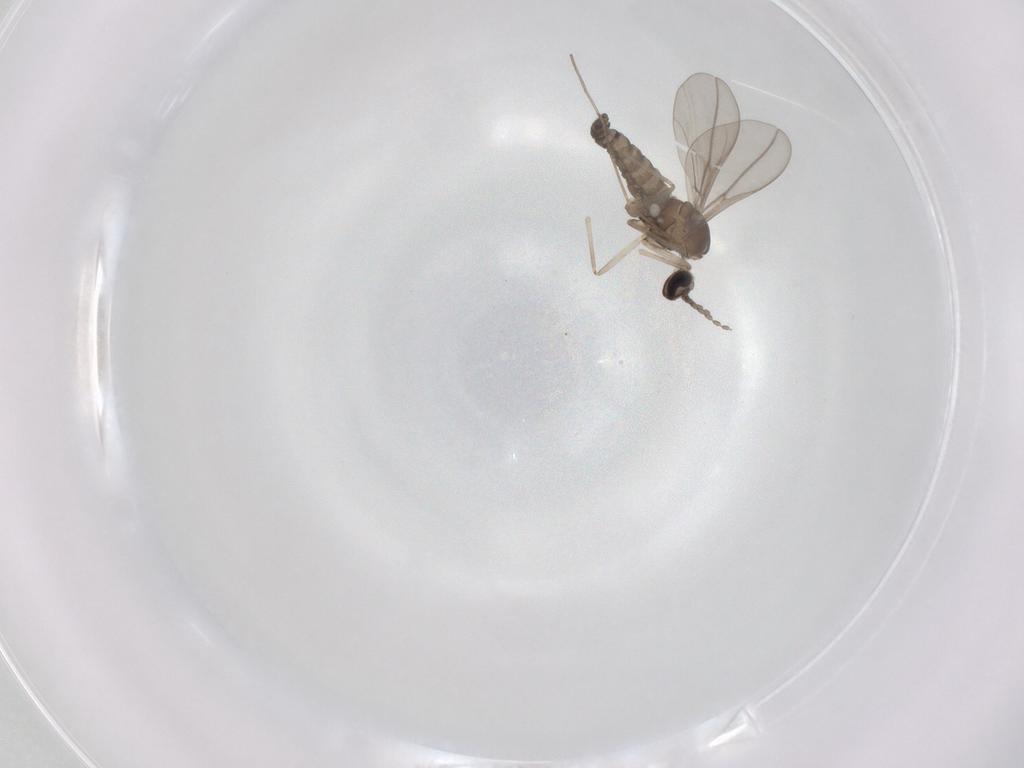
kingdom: Animalia
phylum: Arthropoda
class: Insecta
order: Diptera
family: Cecidomyiidae
